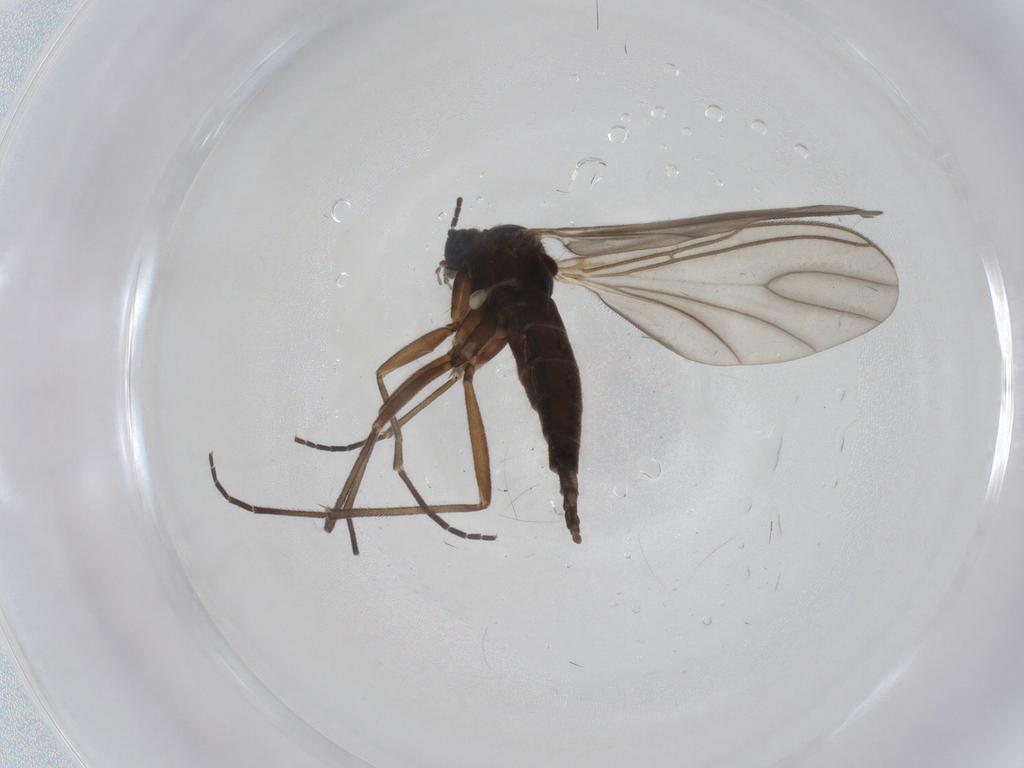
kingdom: Animalia
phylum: Arthropoda
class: Insecta
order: Diptera
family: Sciaridae
